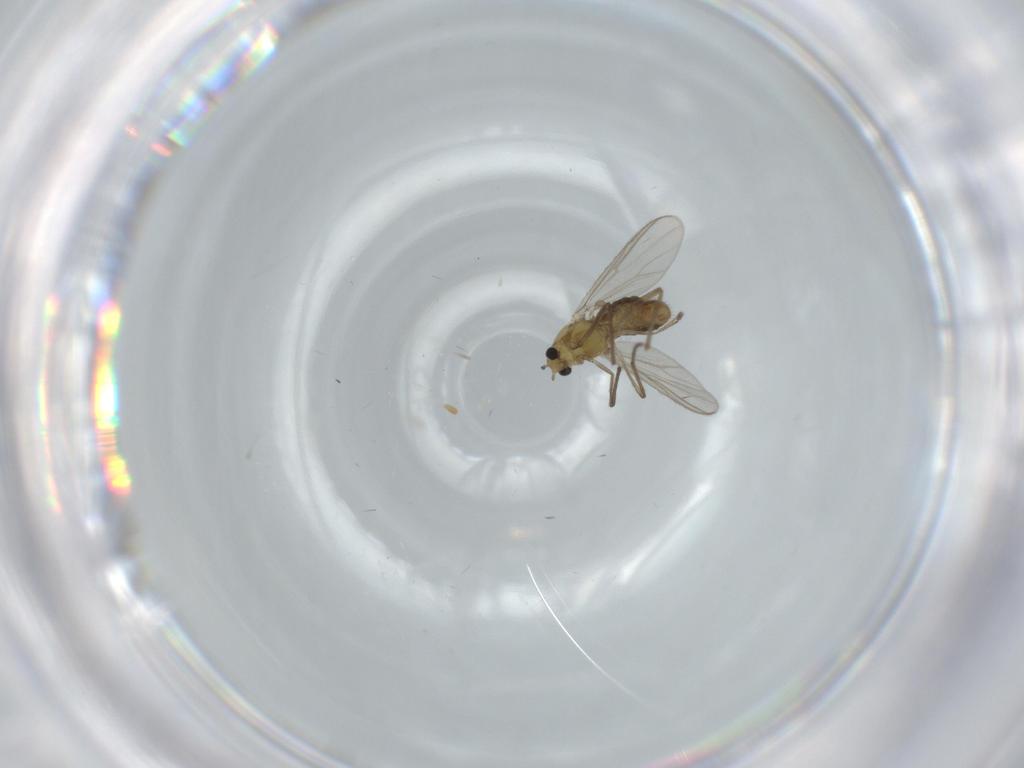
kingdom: Animalia
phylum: Arthropoda
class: Insecta
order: Diptera
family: Chironomidae
